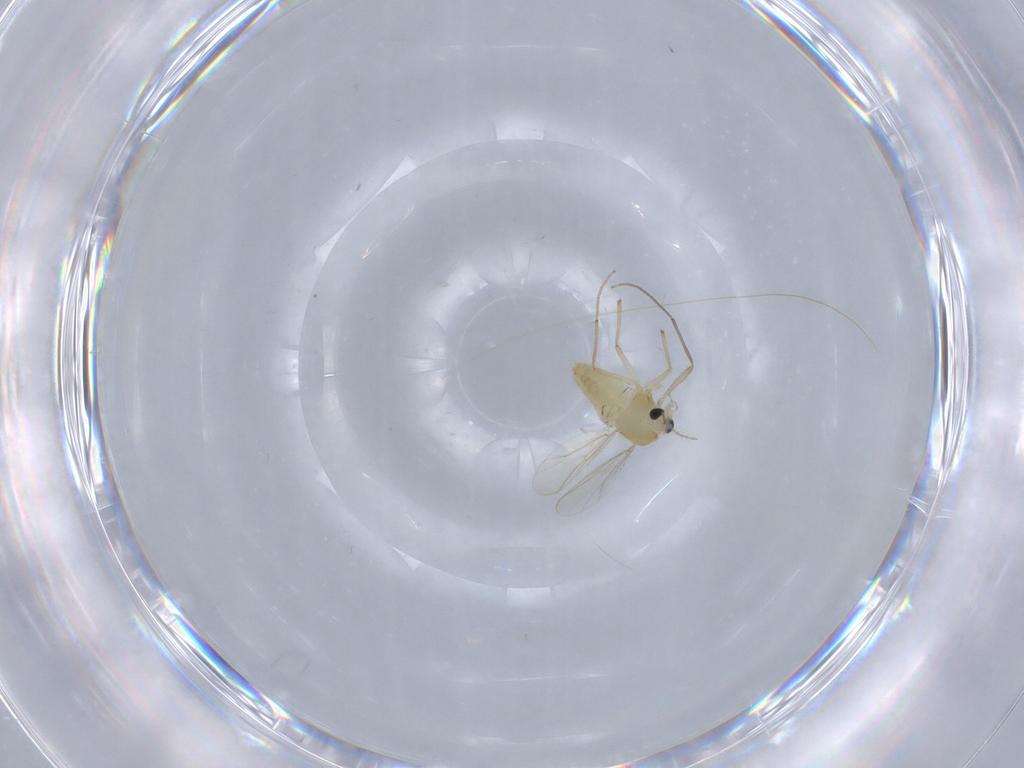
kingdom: Animalia
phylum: Arthropoda
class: Insecta
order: Diptera
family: Chironomidae
